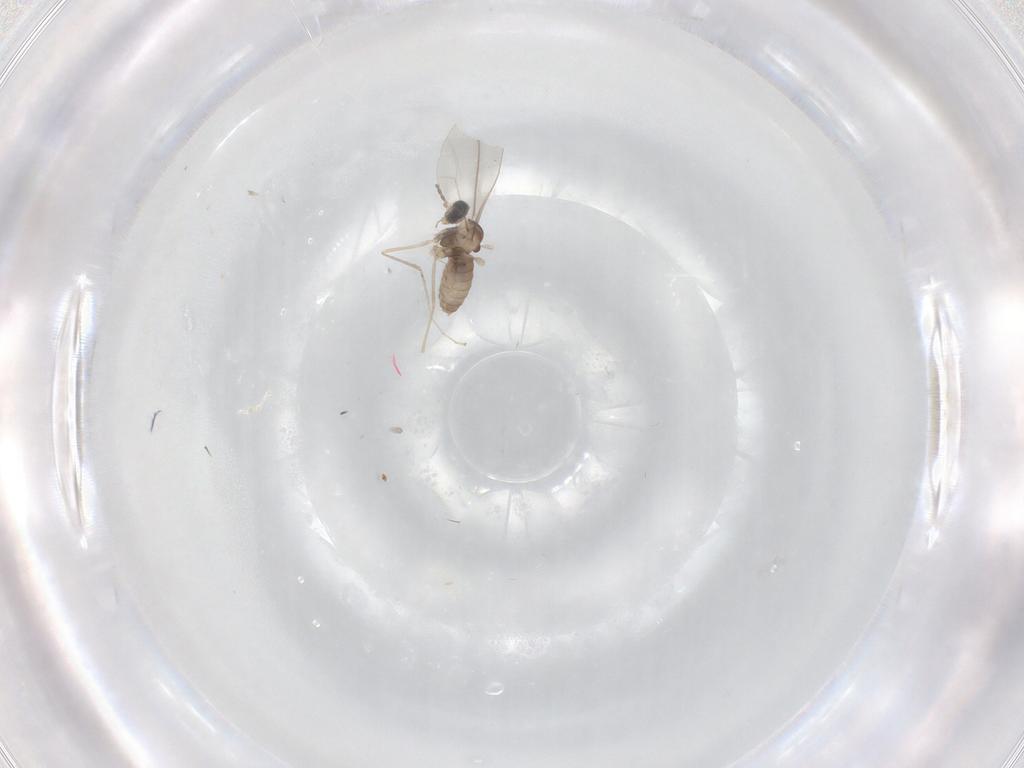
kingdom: Animalia
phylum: Arthropoda
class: Insecta
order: Diptera
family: Cecidomyiidae
